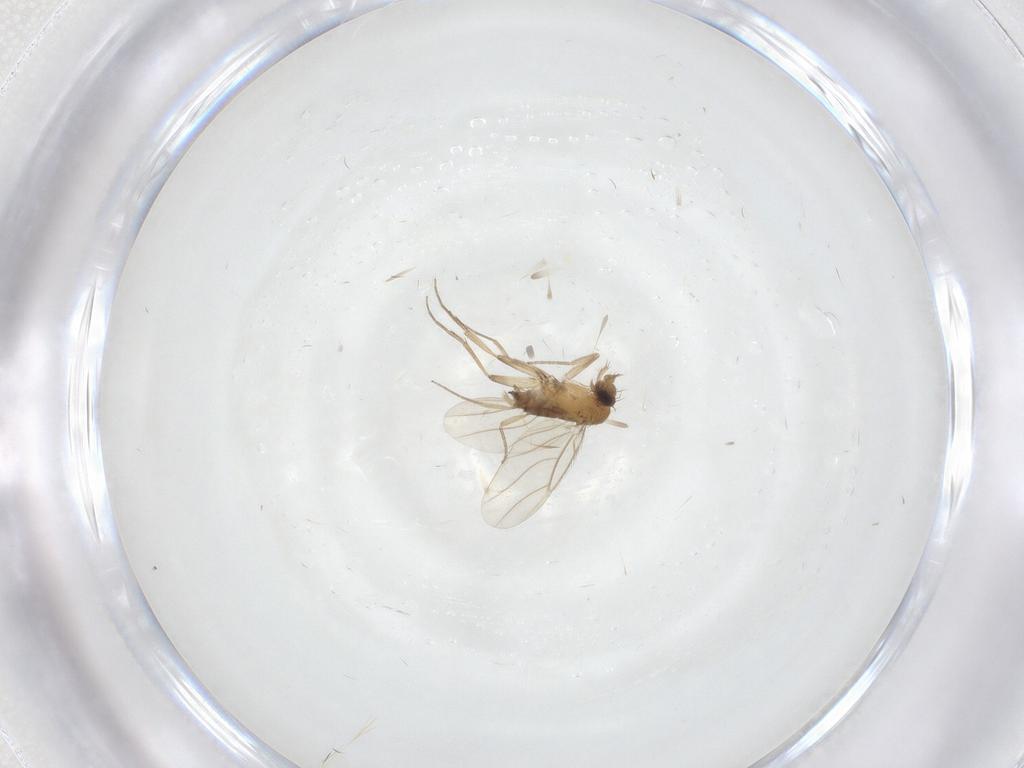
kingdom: Animalia
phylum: Arthropoda
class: Insecta
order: Diptera
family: Phoridae
